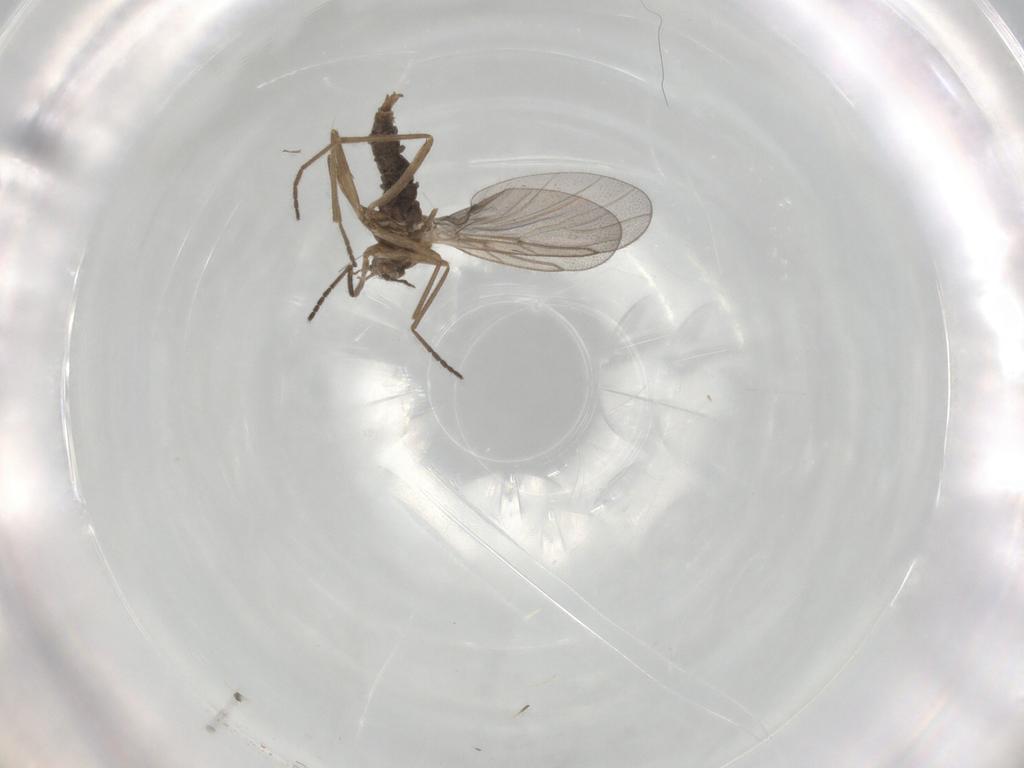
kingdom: Animalia
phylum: Arthropoda
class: Insecta
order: Diptera
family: Cecidomyiidae
